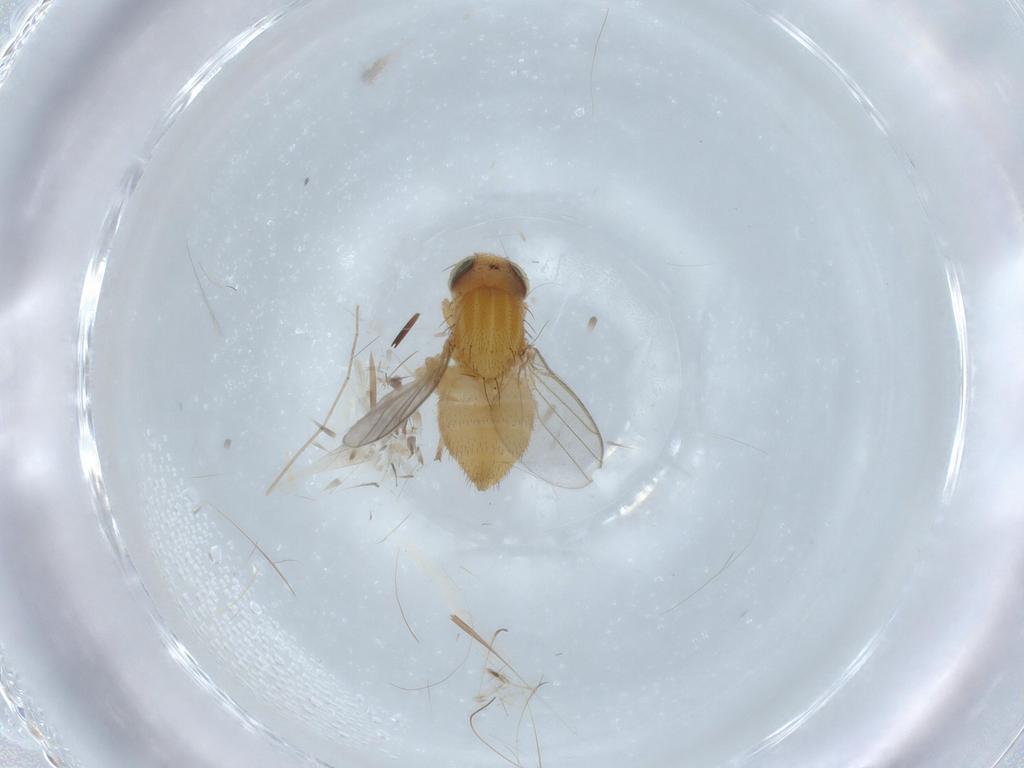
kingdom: Animalia
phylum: Arthropoda
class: Insecta
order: Diptera
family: Chloropidae
